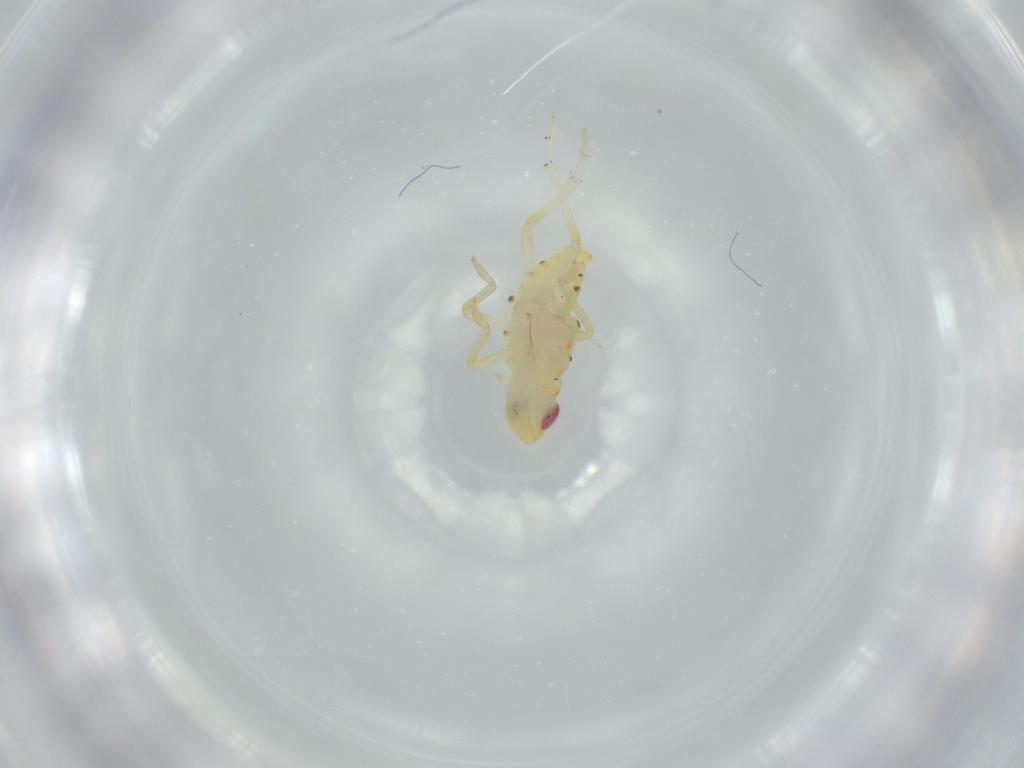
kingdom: Animalia
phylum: Arthropoda
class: Insecta
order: Hemiptera
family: Tropiduchidae
